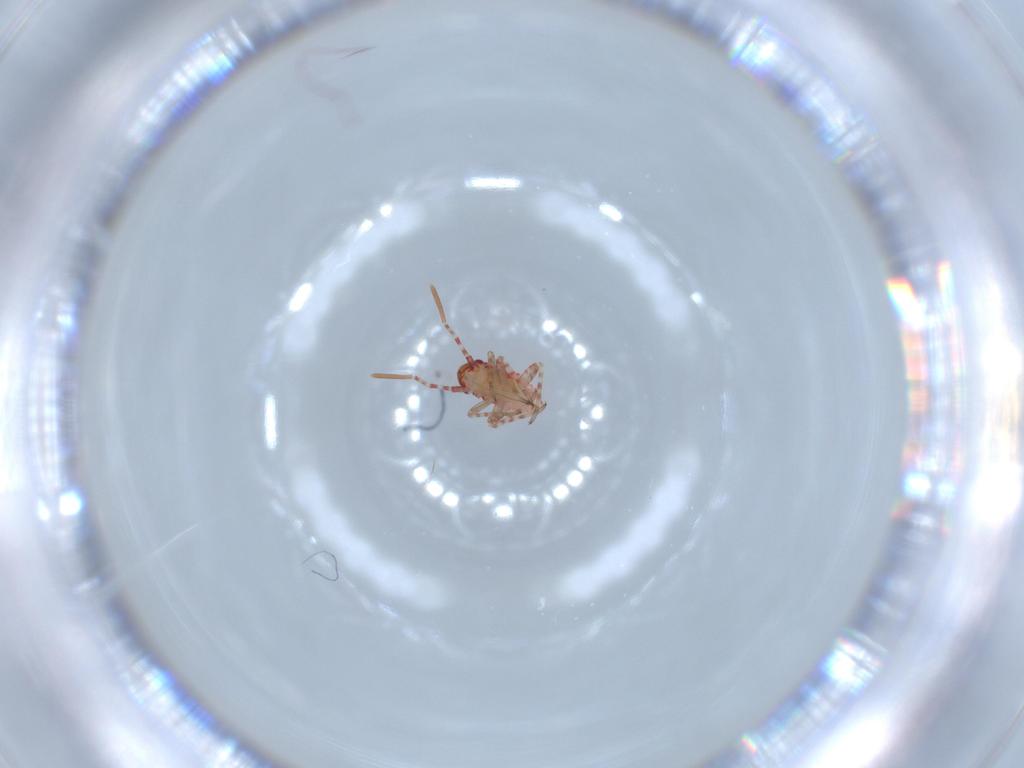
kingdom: Animalia
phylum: Arthropoda
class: Insecta
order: Hemiptera
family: Miridae
